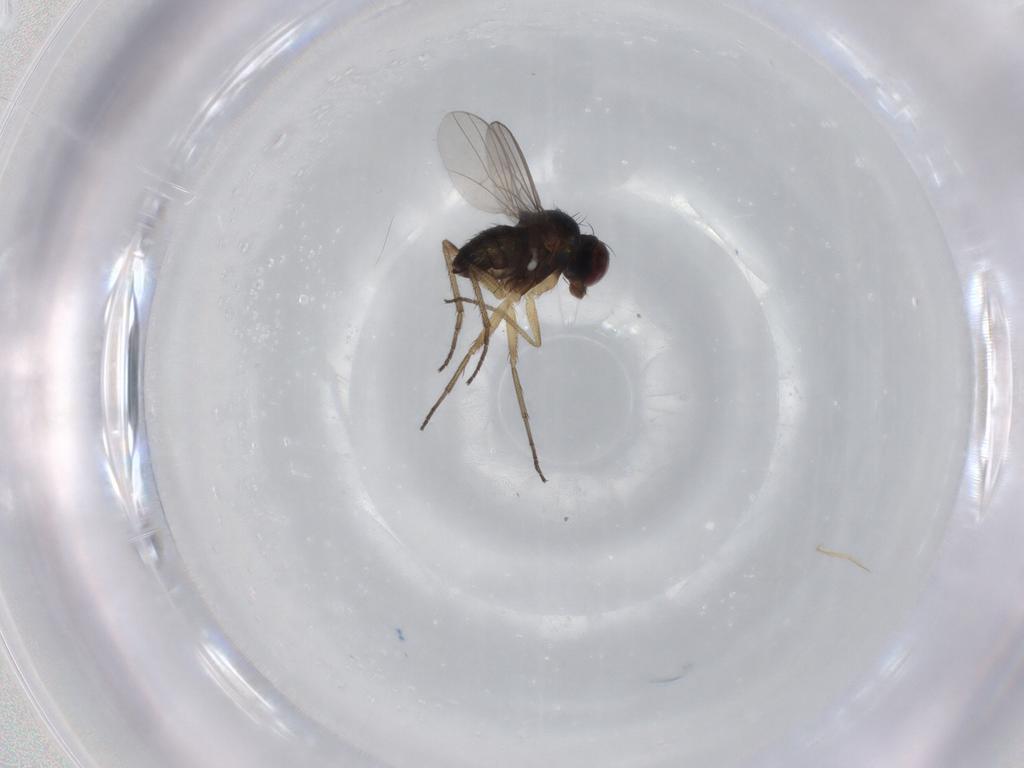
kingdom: Animalia
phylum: Arthropoda
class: Insecta
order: Diptera
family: Dolichopodidae
